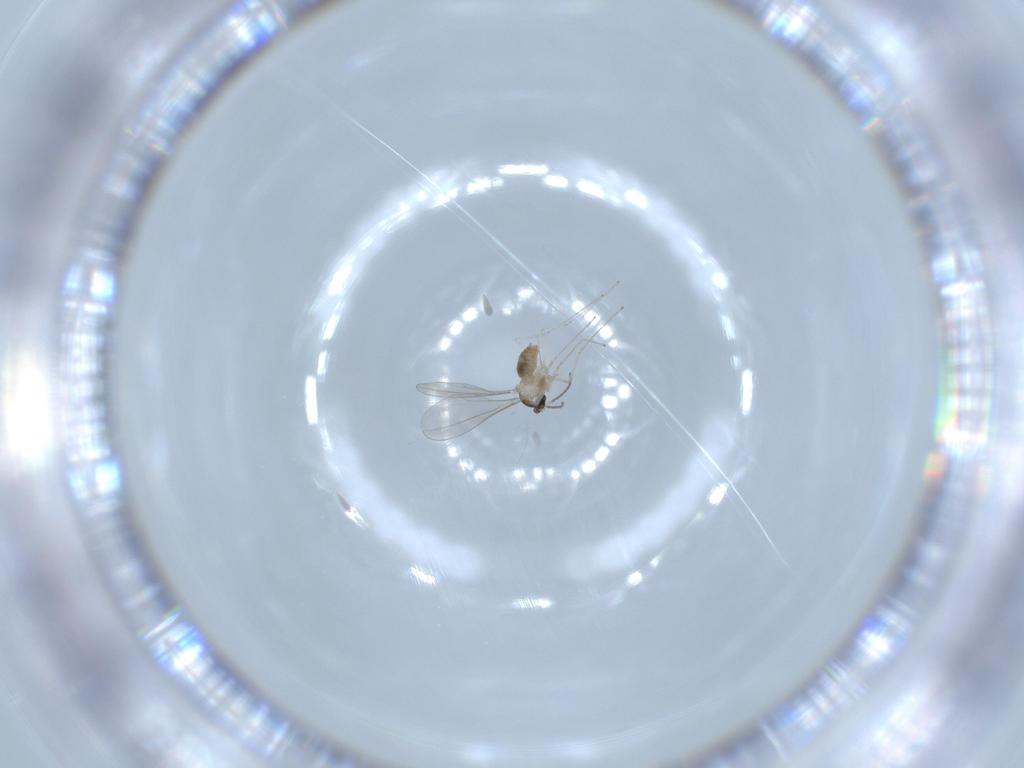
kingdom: Animalia
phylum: Arthropoda
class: Insecta
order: Diptera
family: Cecidomyiidae
